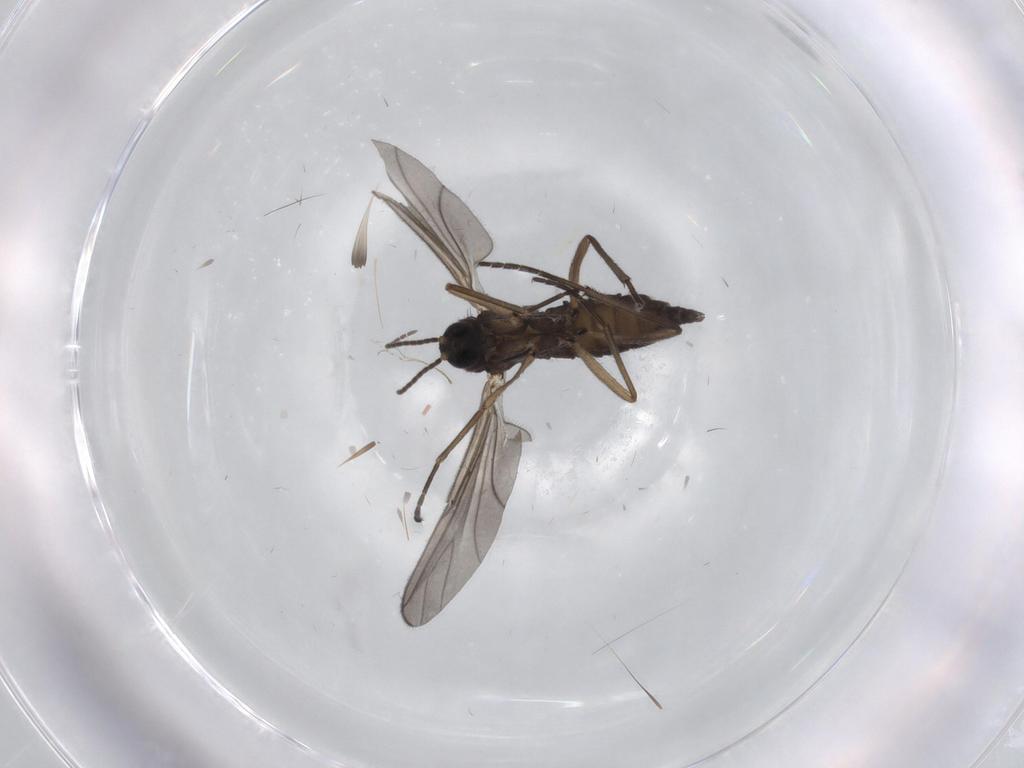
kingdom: Animalia
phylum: Arthropoda
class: Insecta
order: Diptera
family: Sciaridae
